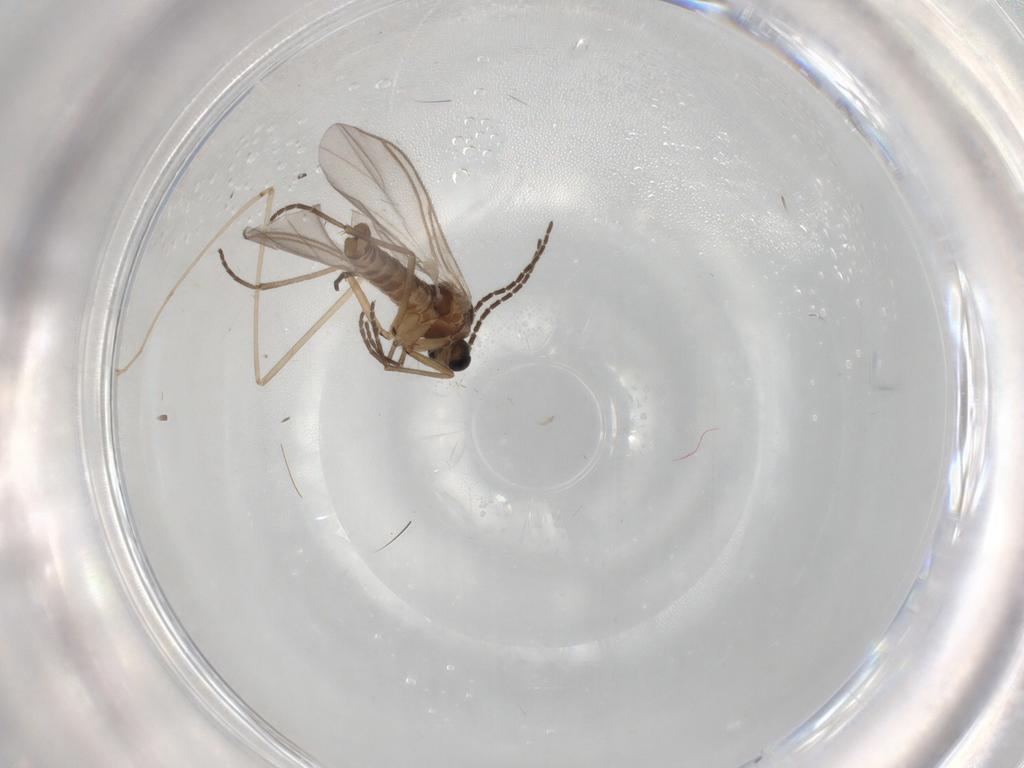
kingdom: Animalia
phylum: Arthropoda
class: Insecta
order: Diptera
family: Sciaridae
